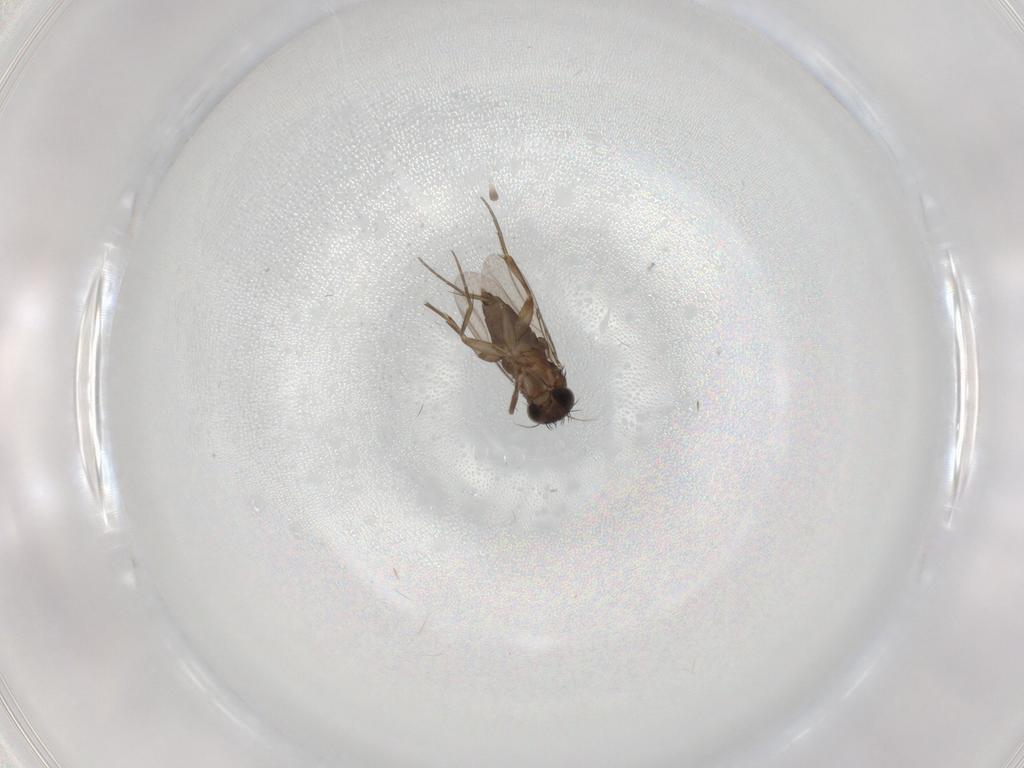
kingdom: Animalia
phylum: Arthropoda
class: Insecta
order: Diptera
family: Phoridae
